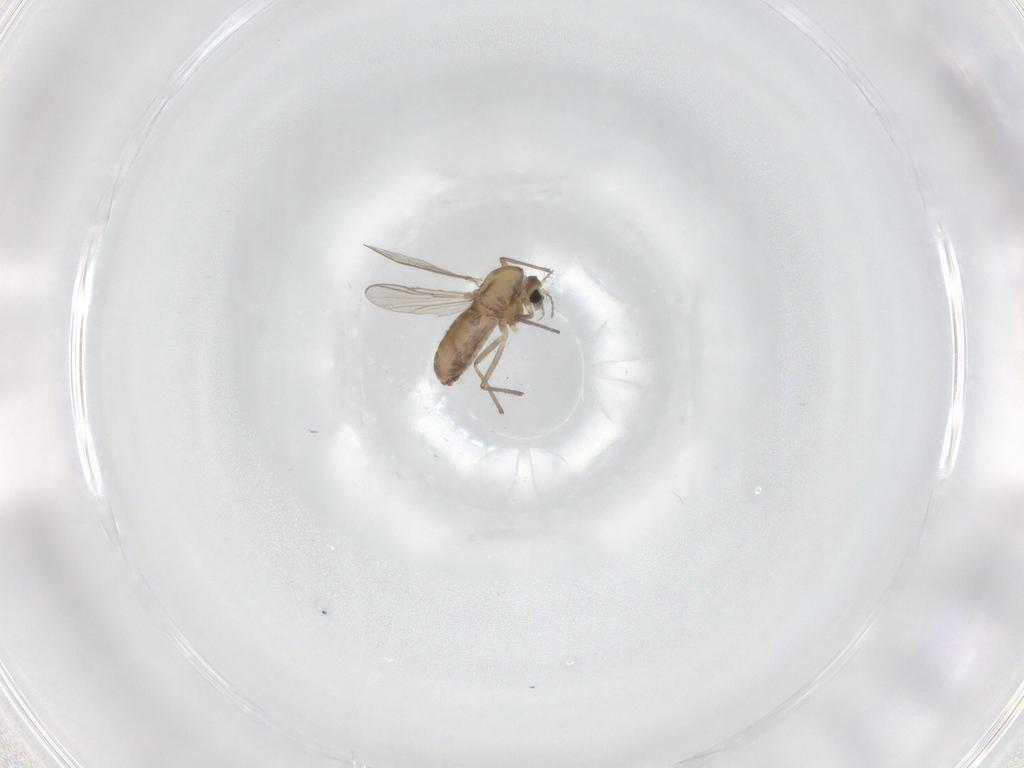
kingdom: Animalia
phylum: Arthropoda
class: Insecta
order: Diptera
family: Chironomidae
